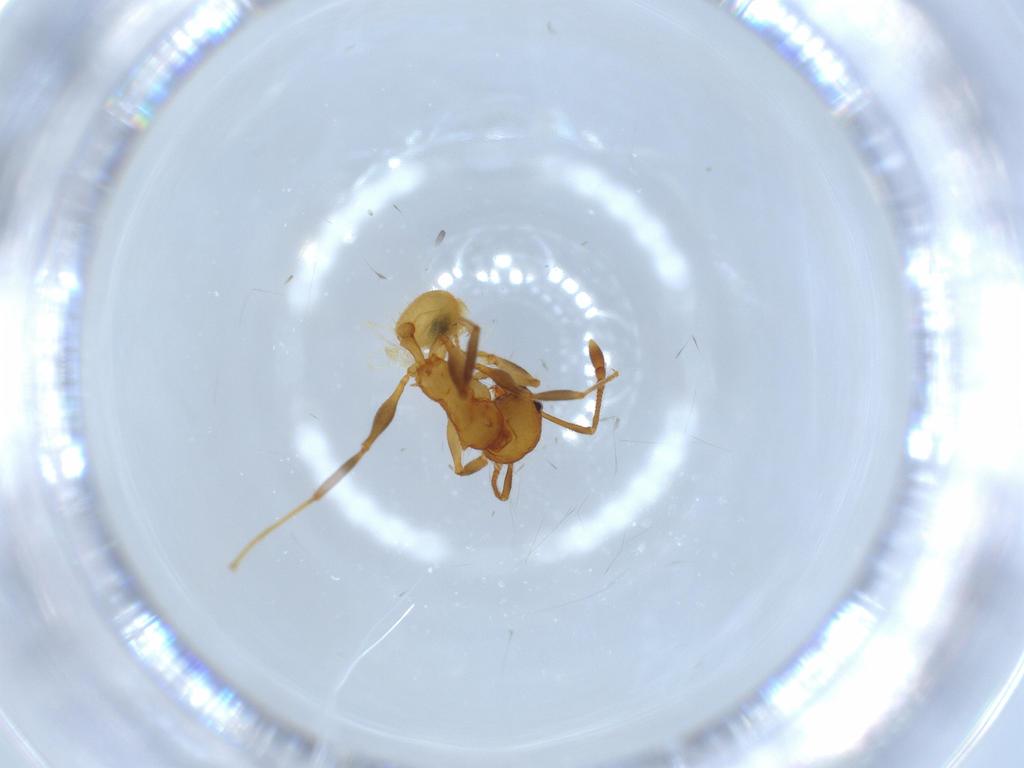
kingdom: Animalia
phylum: Arthropoda
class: Insecta
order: Hymenoptera
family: Formicidae
